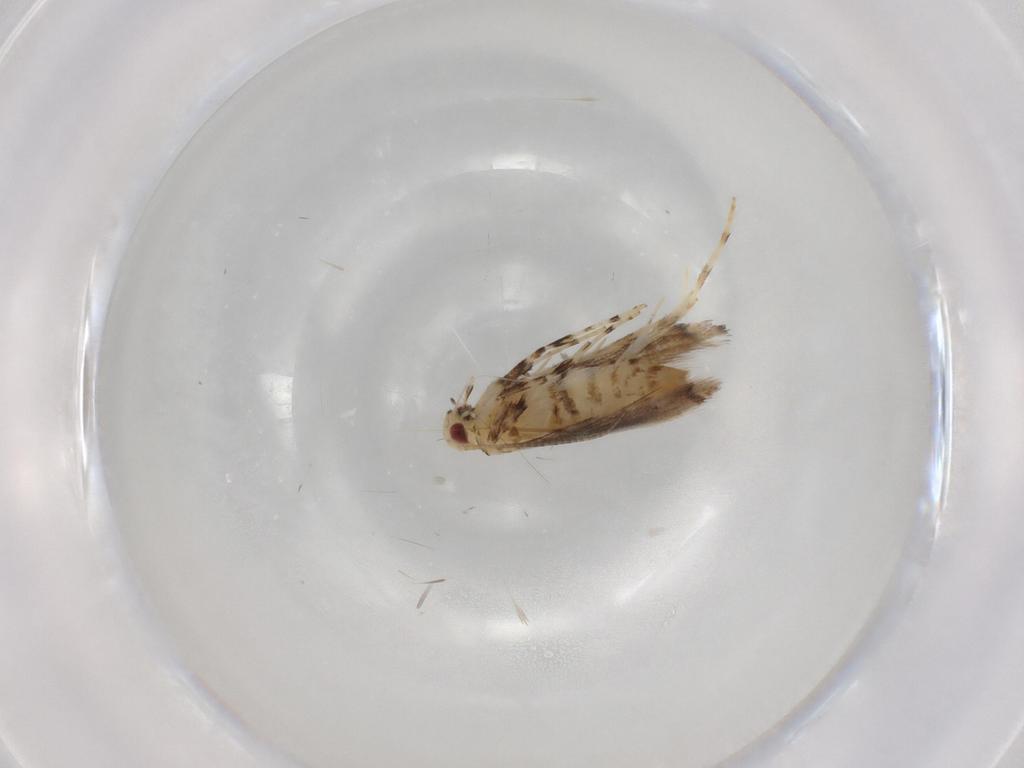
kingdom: Animalia
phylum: Arthropoda
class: Insecta
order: Lepidoptera
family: Gracillariidae
